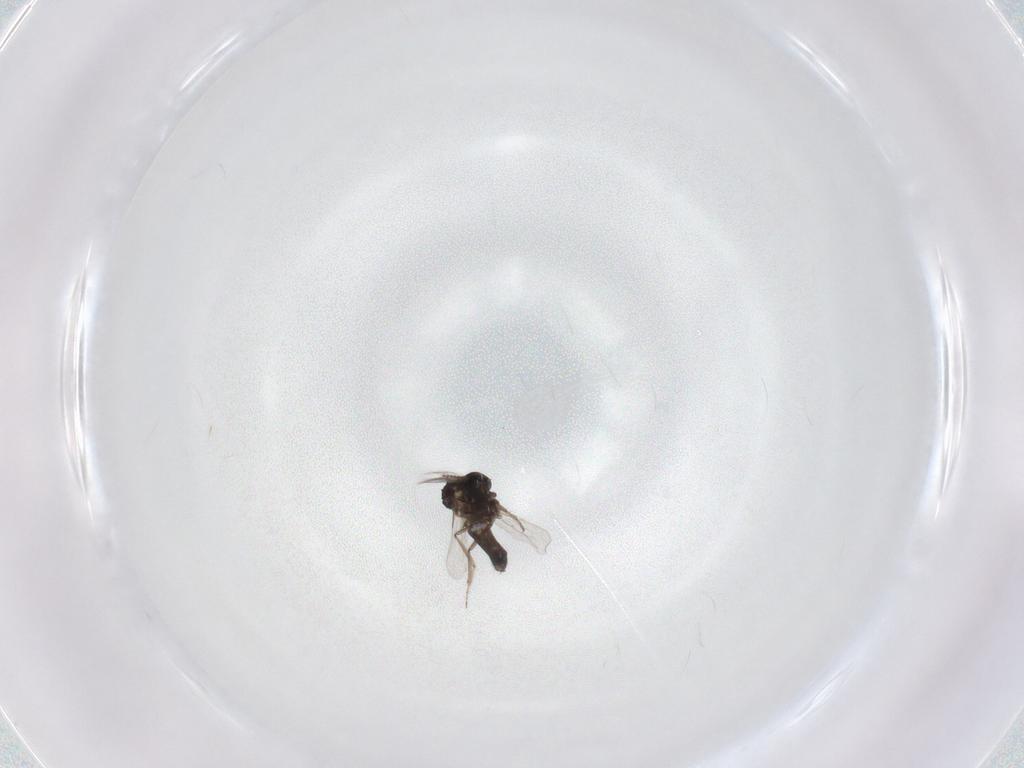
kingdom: Animalia
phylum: Arthropoda
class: Insecta
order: Diptera
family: Ceratopogonidae
